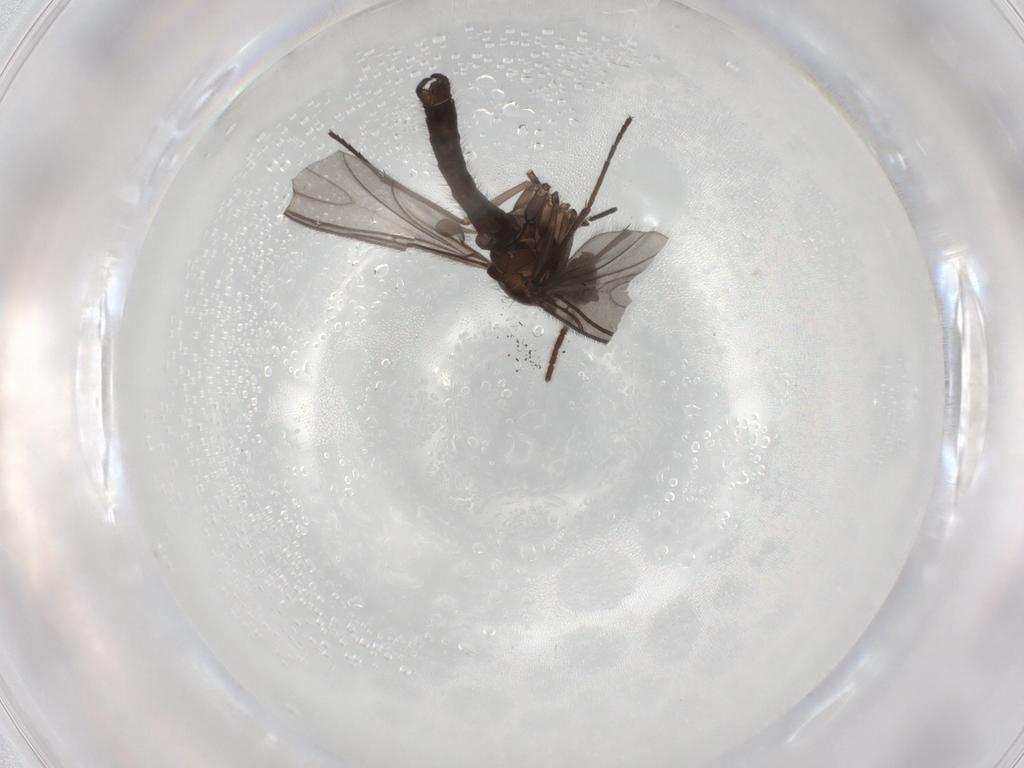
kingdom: Animalia
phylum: Arthropoda
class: Insecta
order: Diptera
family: Sciaridae
